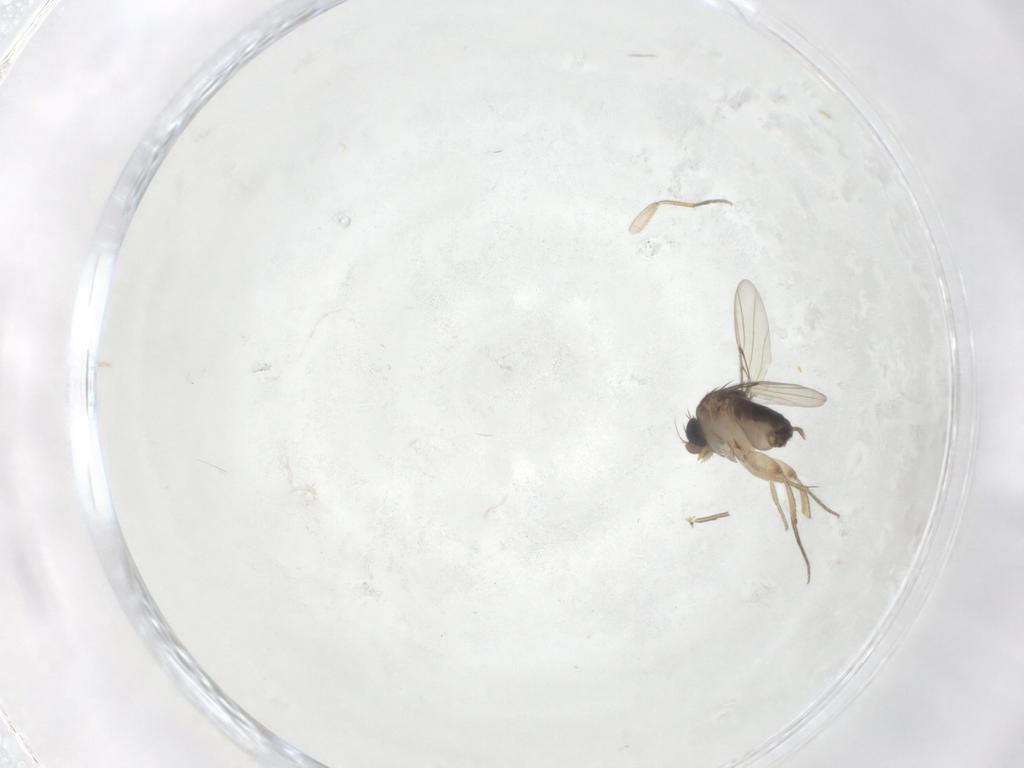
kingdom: Animalia
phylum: Arthropoda
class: Insecta
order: Diptera
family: Phoridae
